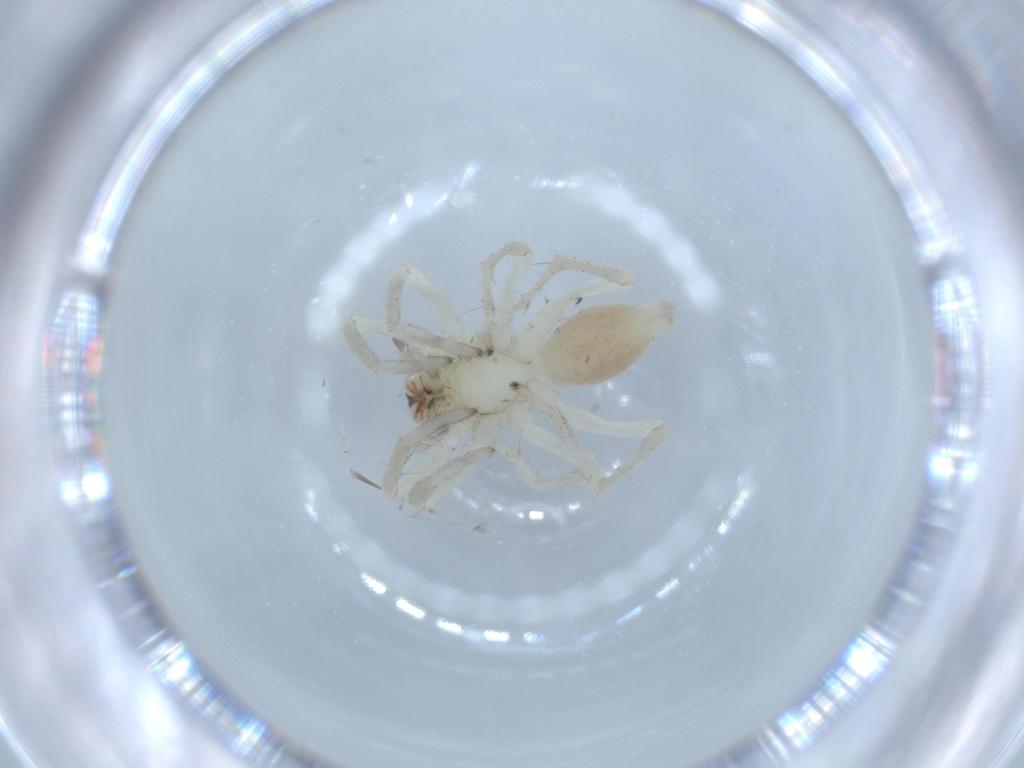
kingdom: Animalia
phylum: Arthropoda
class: Arachnida
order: Araneae
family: Linyphiidae
